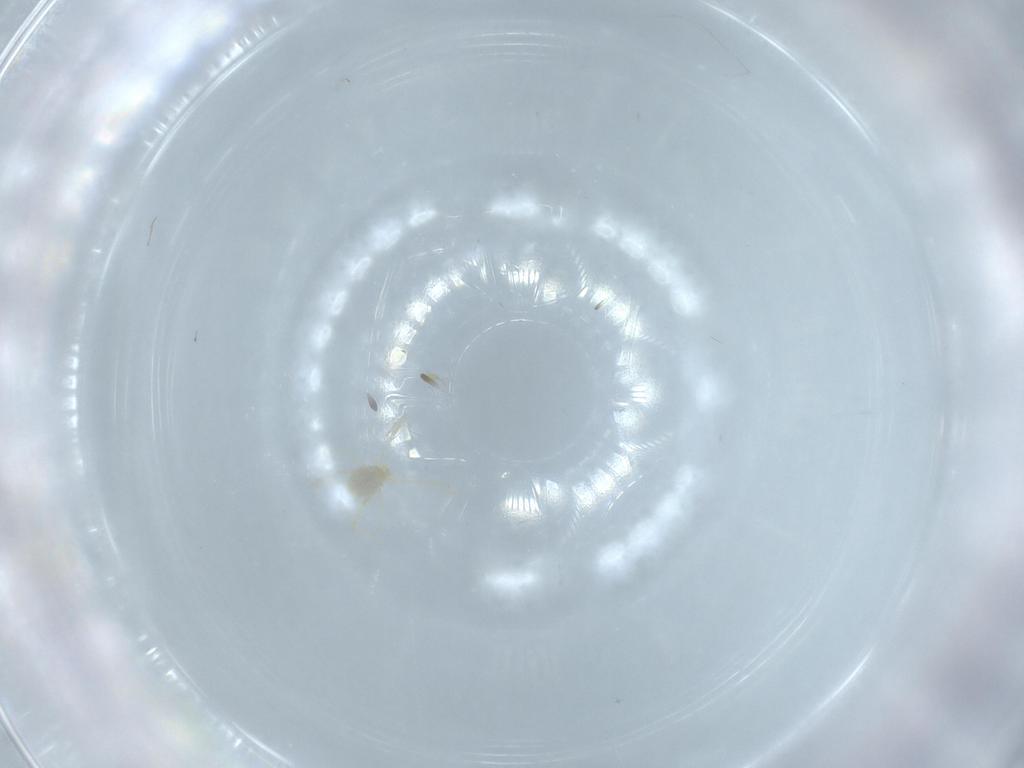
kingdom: Animalia
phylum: Arthropoda
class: Arachnida
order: Trombidiformes
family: Erythraeidae
